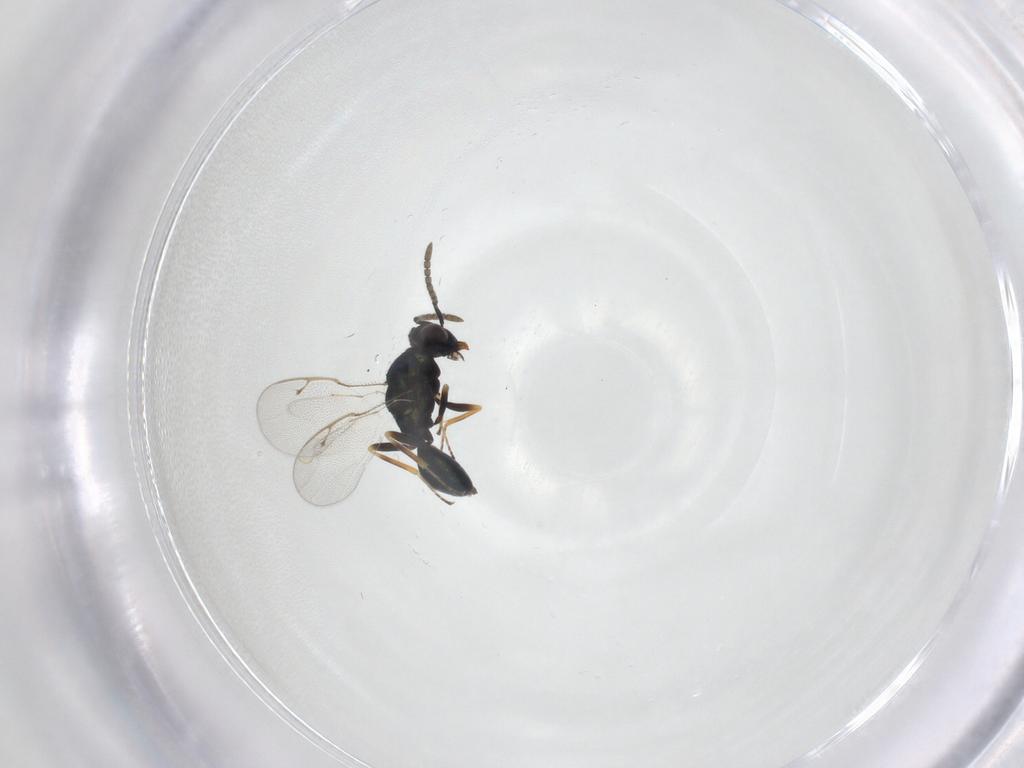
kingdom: Animalia
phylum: Arthropoda
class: Insecta
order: Hymenoptera
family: Pteromalidae
